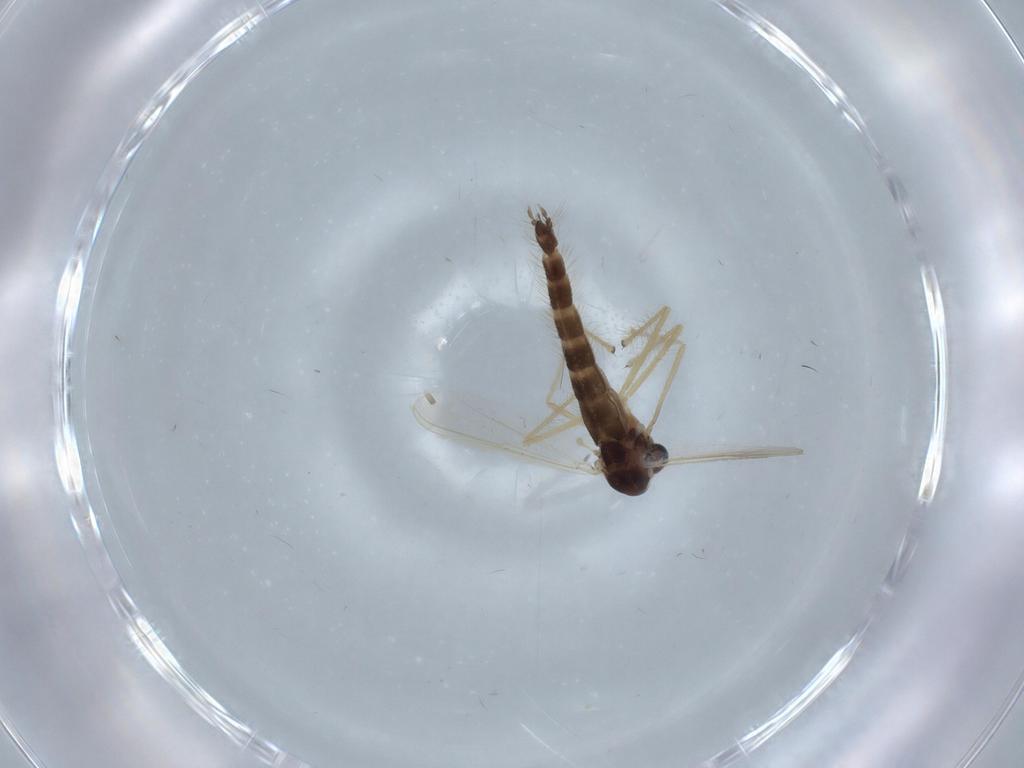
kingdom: Animalia
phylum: Arthropoda
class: Insecta
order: Diptera
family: Chironomidae
